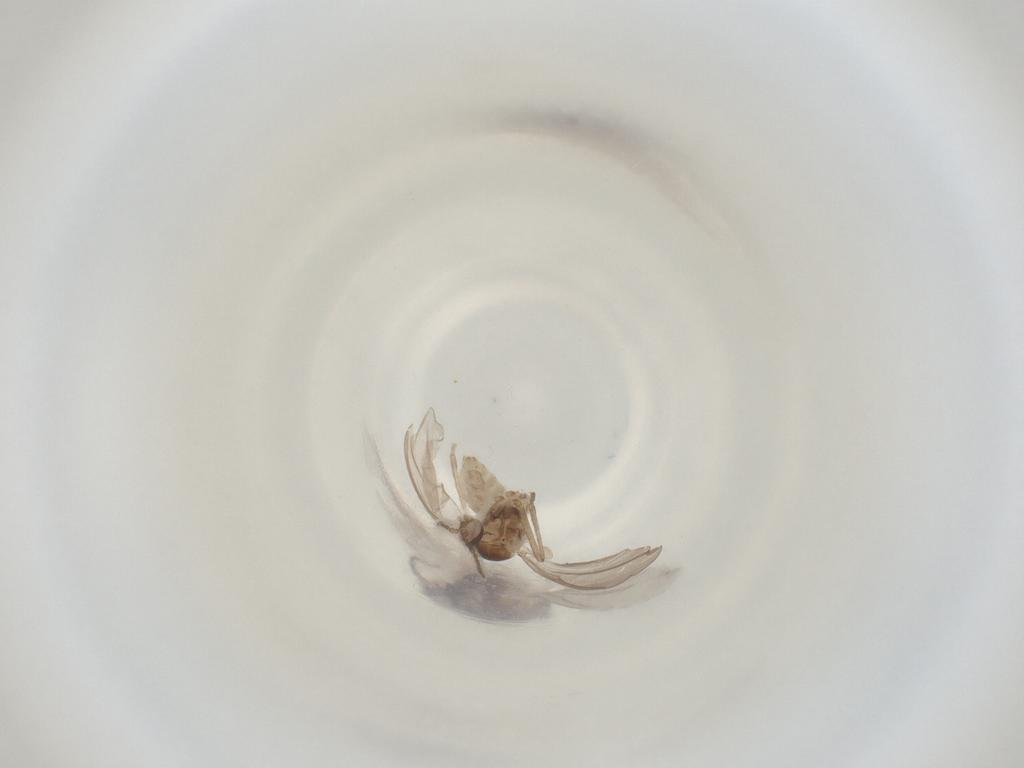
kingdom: Animalia
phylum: Arthropoda
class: Insecta
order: Diptera
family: Cecidomyiidae
